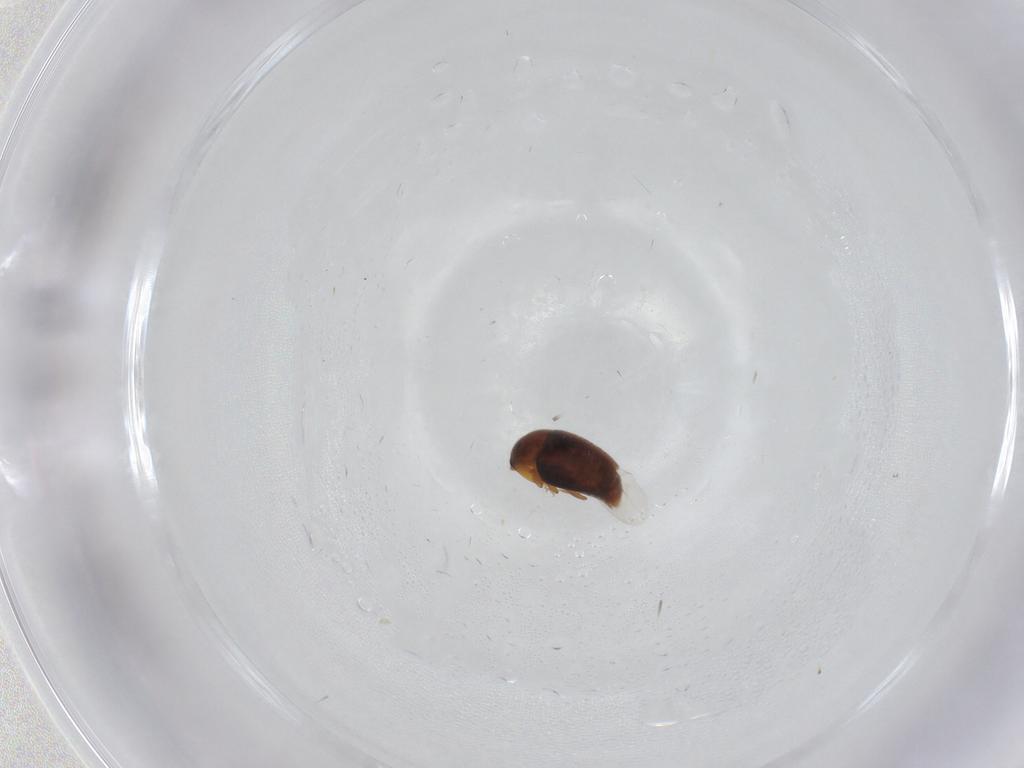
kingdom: Animalia
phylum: Arthropoda
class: Insecta
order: Coleoptera
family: Corylophidae
